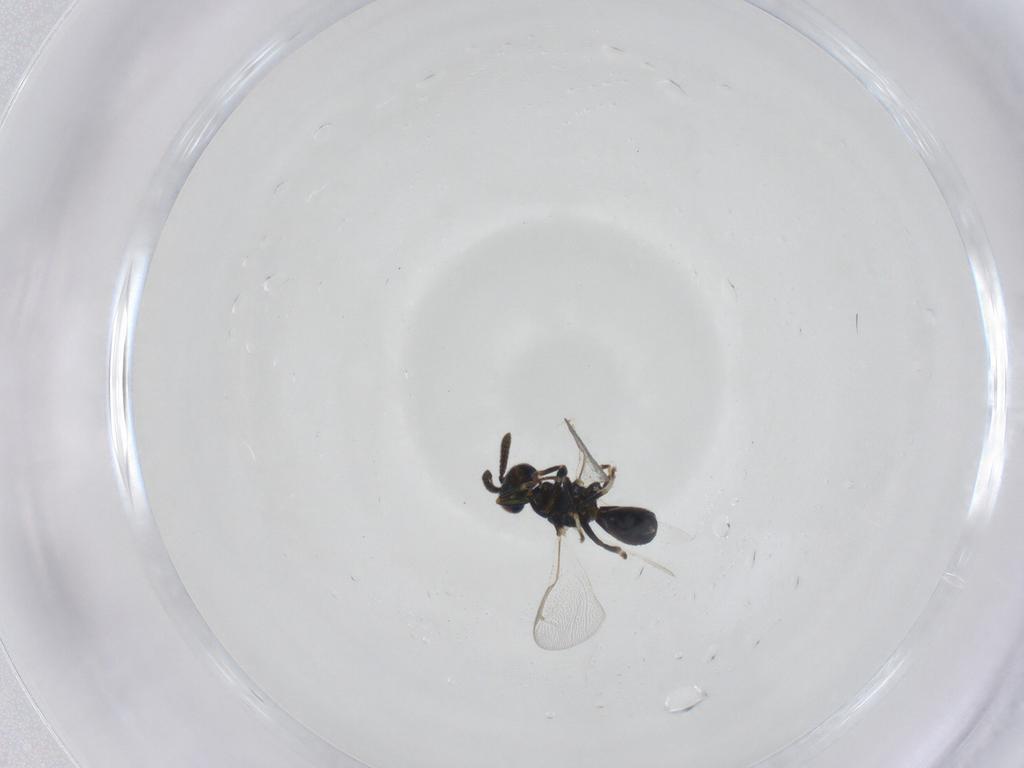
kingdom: Animalia
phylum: Arthropoda
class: Insecta
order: Hymenoptera
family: Torymidae
